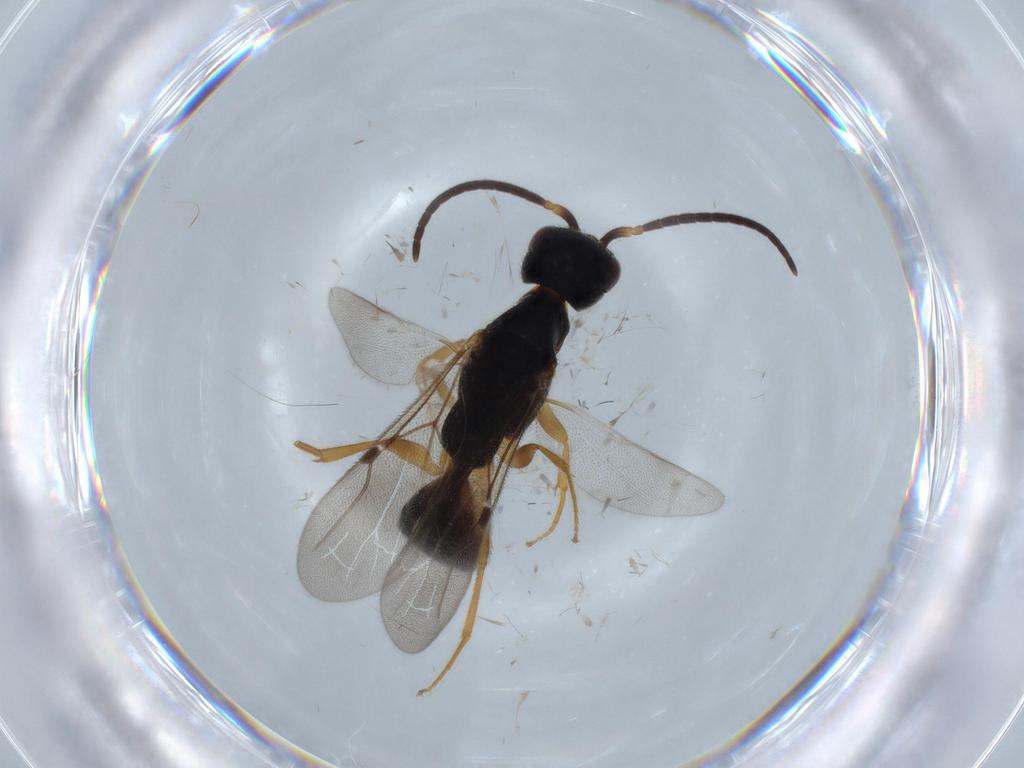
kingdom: Animalia
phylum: Arthropoda
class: Insecta
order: Hymenoptera
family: Bethylidae
